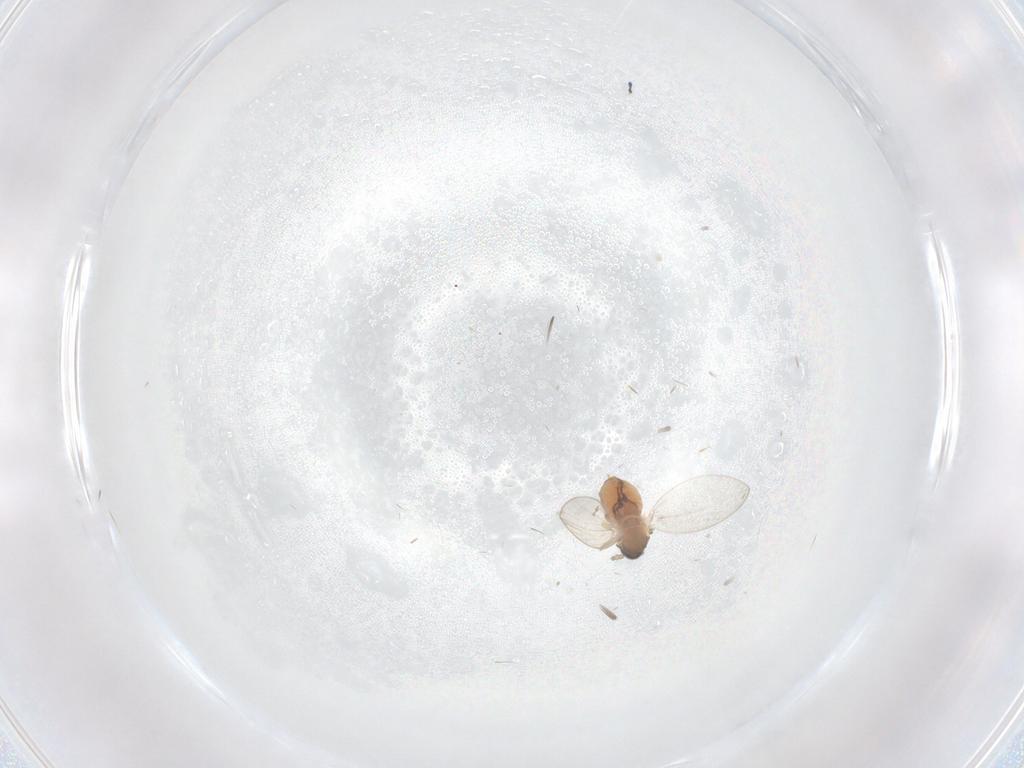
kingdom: Animalia
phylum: Arthropoda
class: Insecta
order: Diptera
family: Psychodidae
